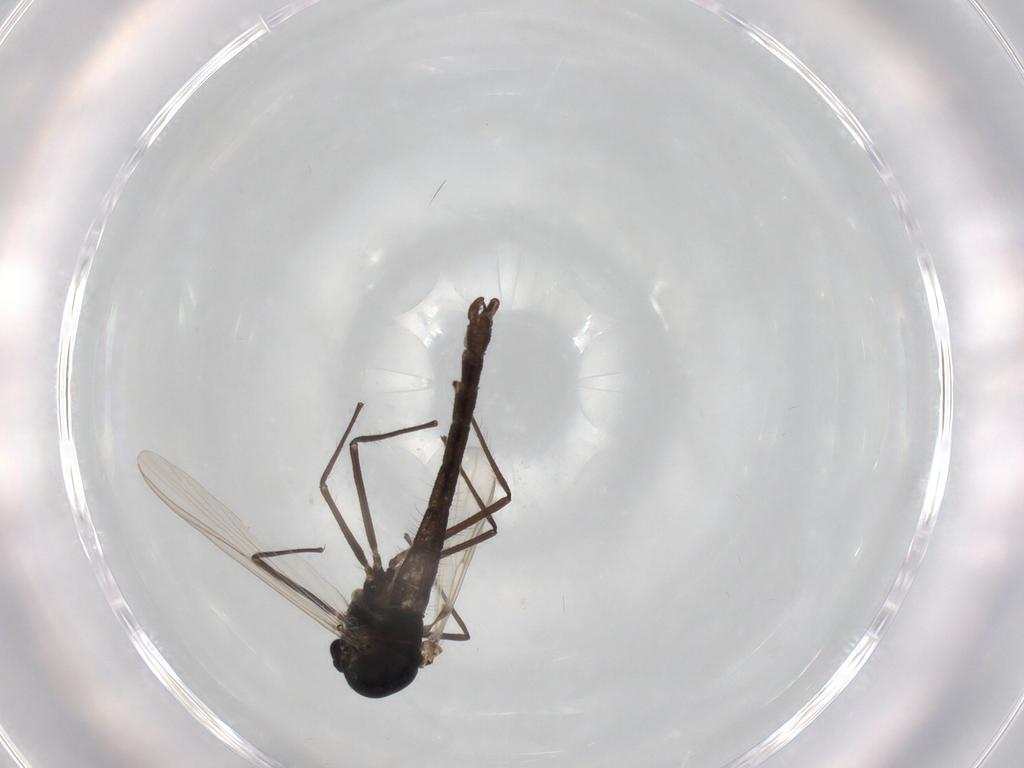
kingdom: Animalia
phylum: Arthropoda
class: Insecta
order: Diptera
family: Chironomidae
